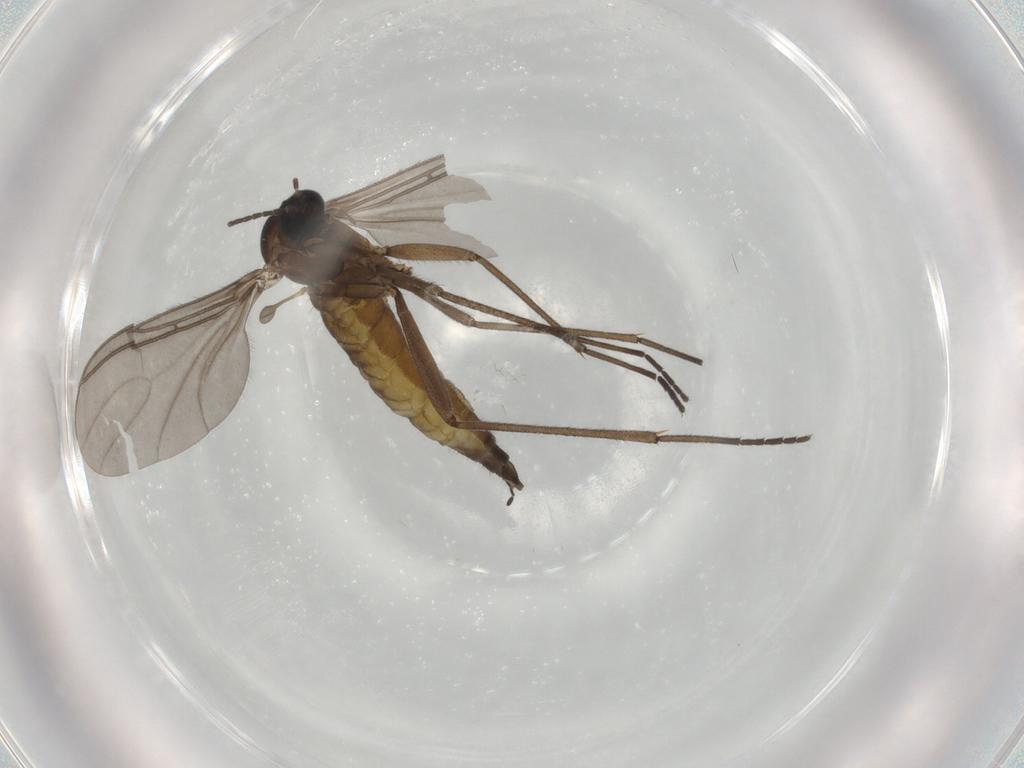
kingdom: Animalia
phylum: Arthropoda
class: Insecta
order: Diptera
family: Sciaridae
